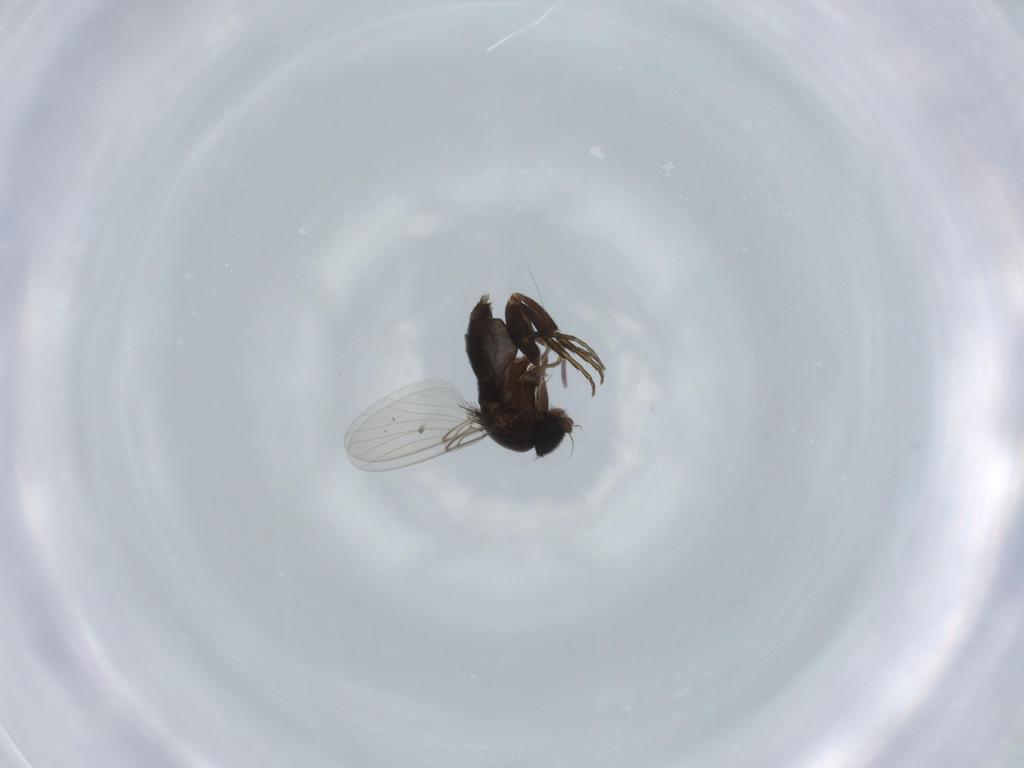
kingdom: Animalia
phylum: Arthropoda
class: Insecta
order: Diptera
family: Phoridae
